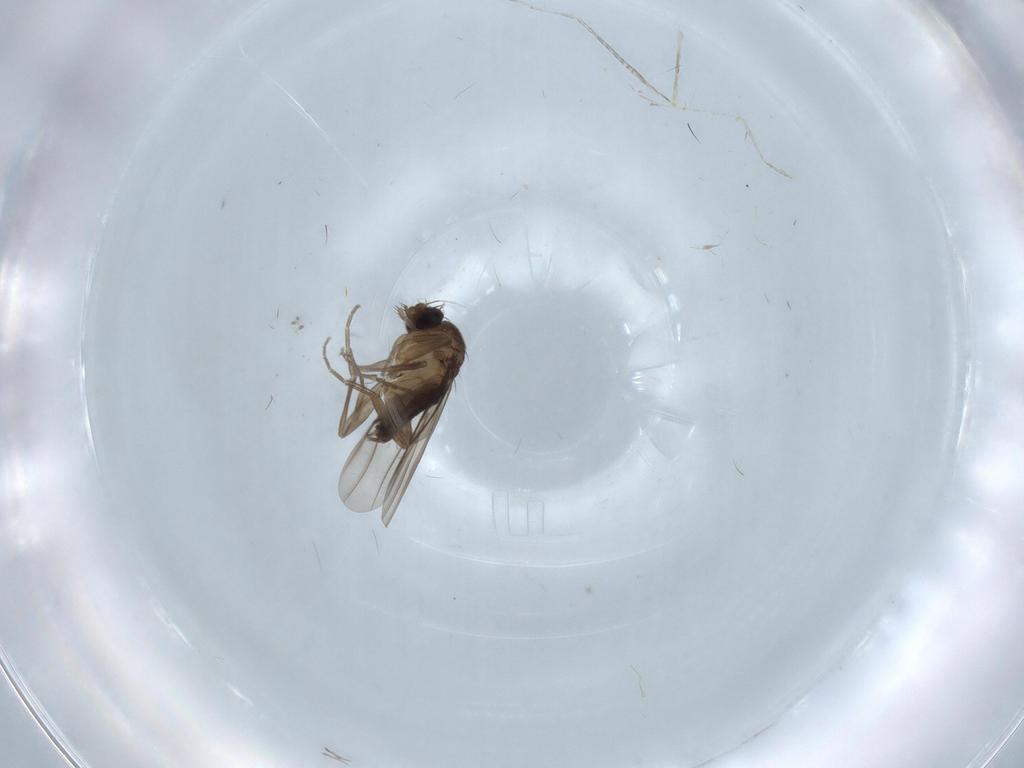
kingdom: Animalia
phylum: Arthropoda
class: Insecta
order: Diptera
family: Phoridae
